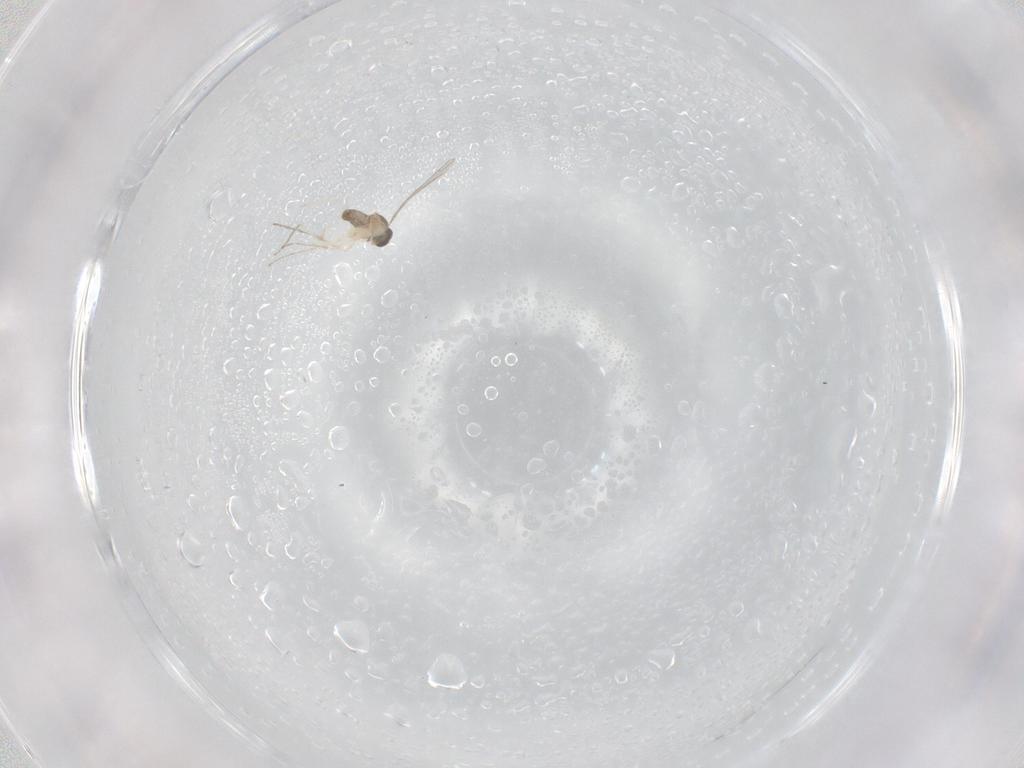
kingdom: Animalia
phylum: Arthropoda
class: Insecta
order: Diptera
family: Cecidomyiidae
